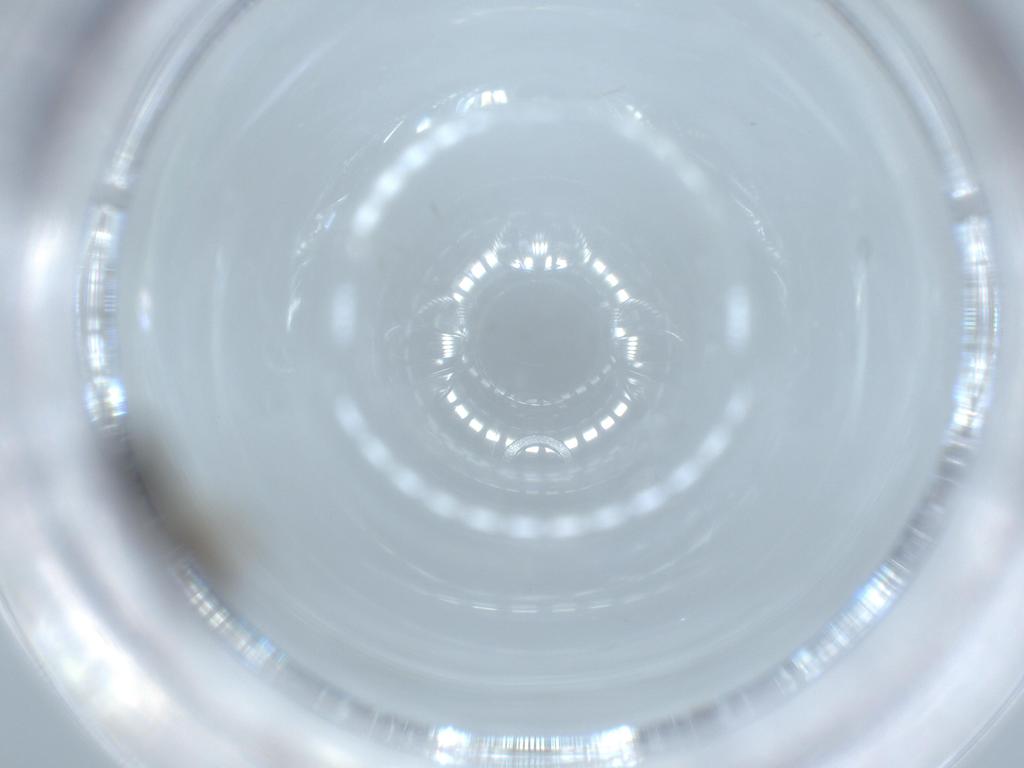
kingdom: Animalia
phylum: Arthropoda
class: Insecta
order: Diptera
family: Sciaridae
